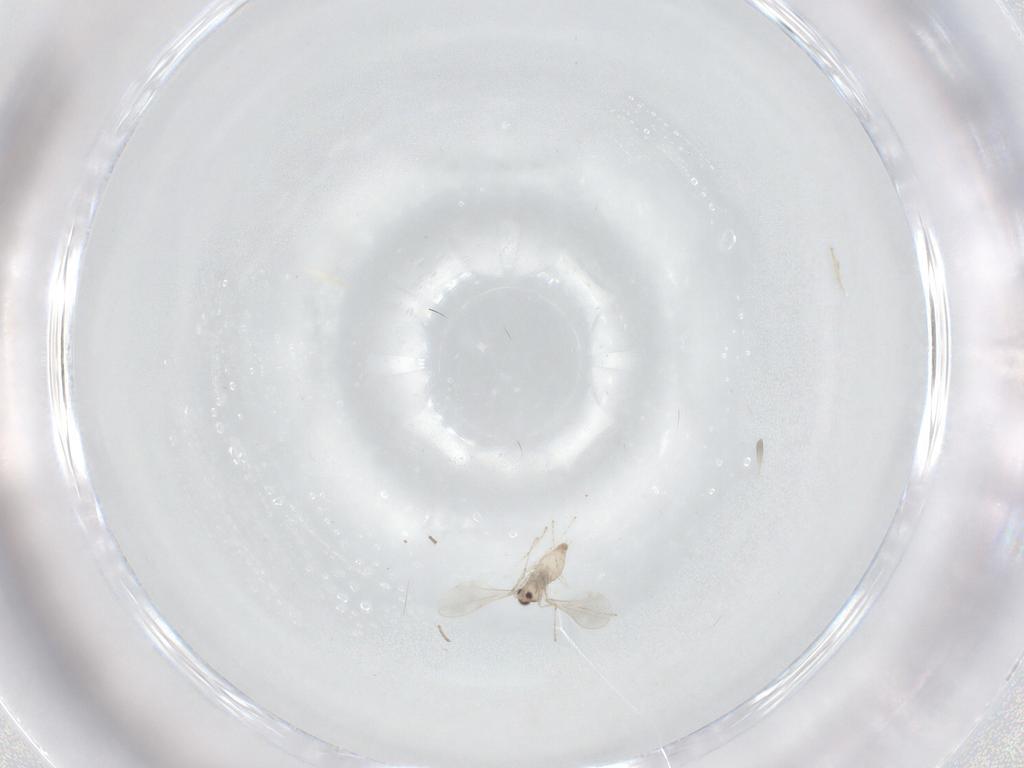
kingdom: Animalia
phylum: Arthropoda
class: Insecta
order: Diptera
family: Cecidomyiidae
